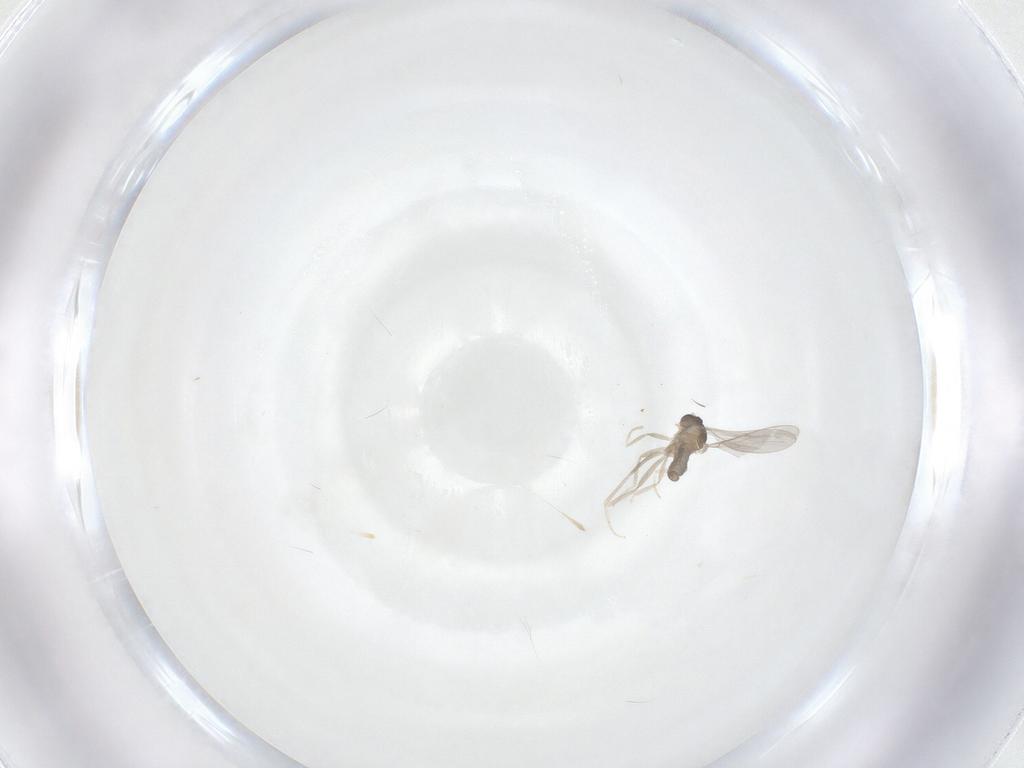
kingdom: Animalia
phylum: Arthropoda
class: Insecta
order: Diptera
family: Cecidomyiidae
